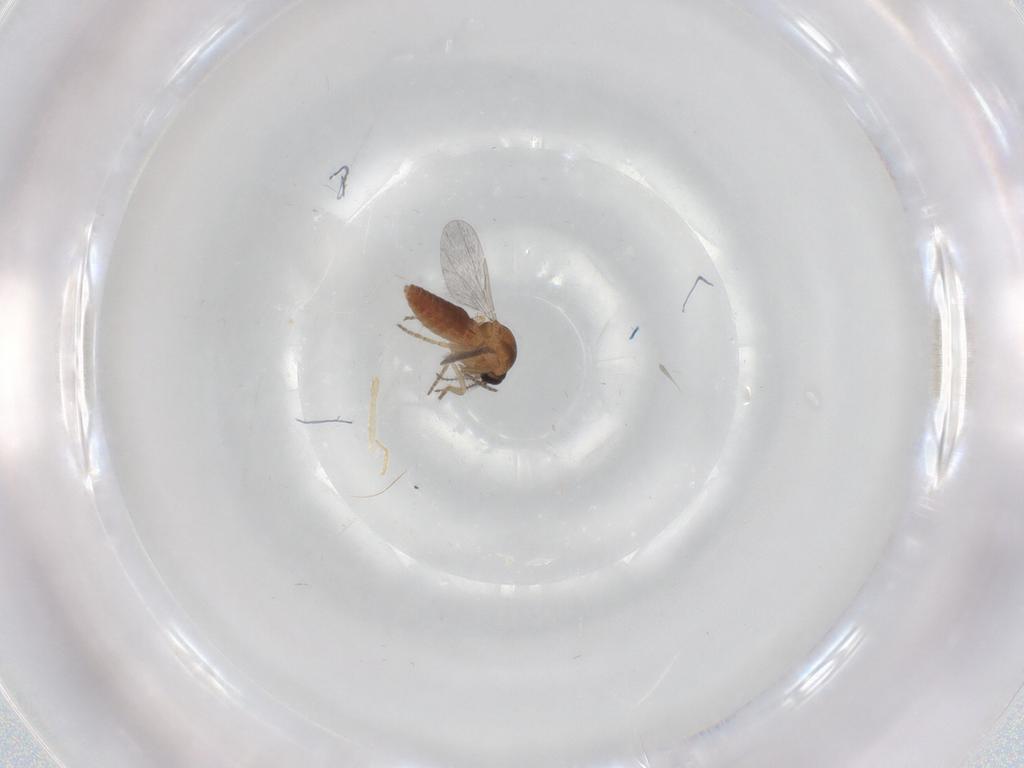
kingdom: Animalia
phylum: Arthropoda
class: Insecta
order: Diptera
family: Ceratopogonidae
